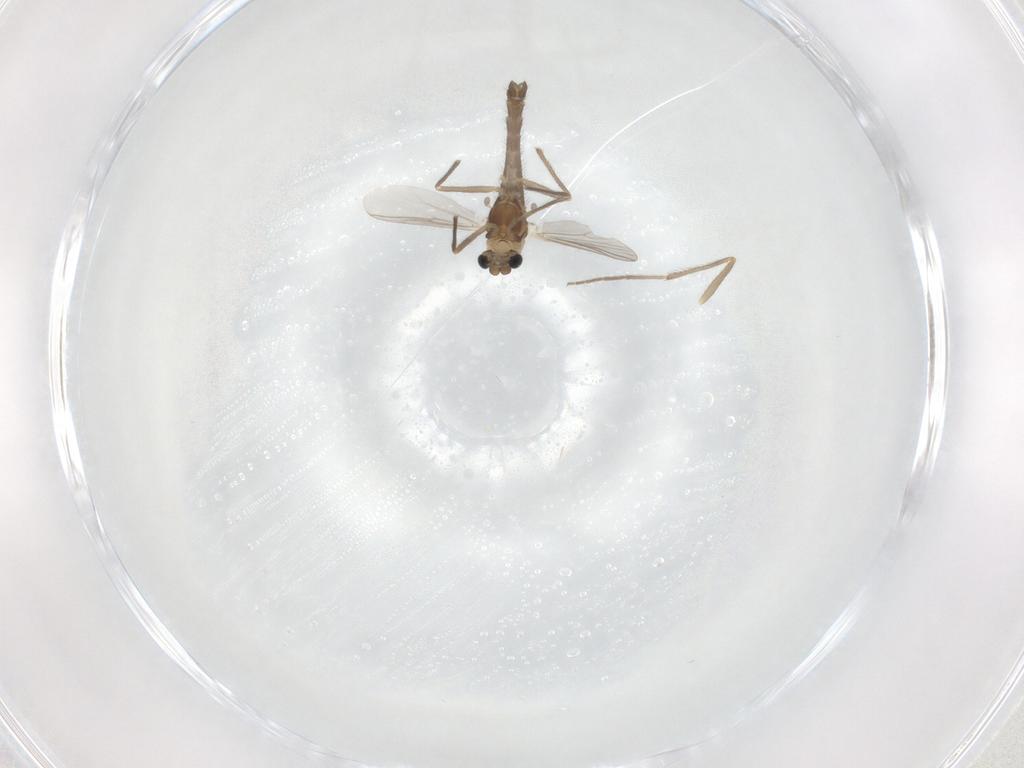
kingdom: Animalia
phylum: Arthropoda
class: Insecta
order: Diptera
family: Chironomidae
